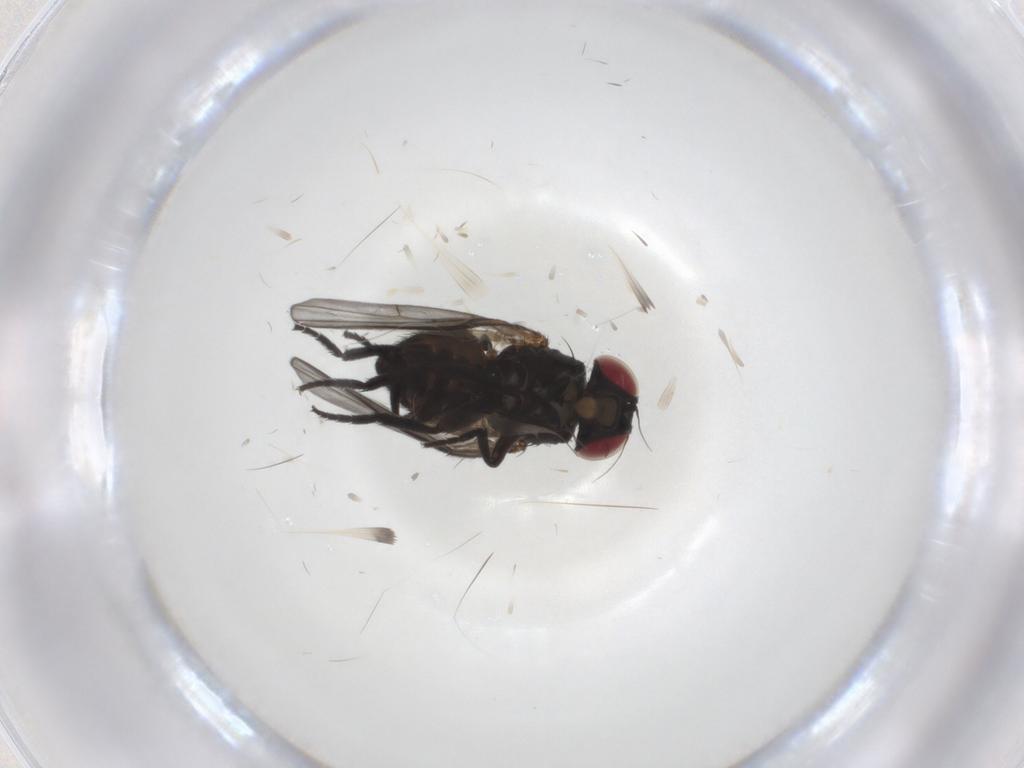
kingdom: Animalia
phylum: Arthropoda
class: Insecta
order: Diptera
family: Agromyzidae
